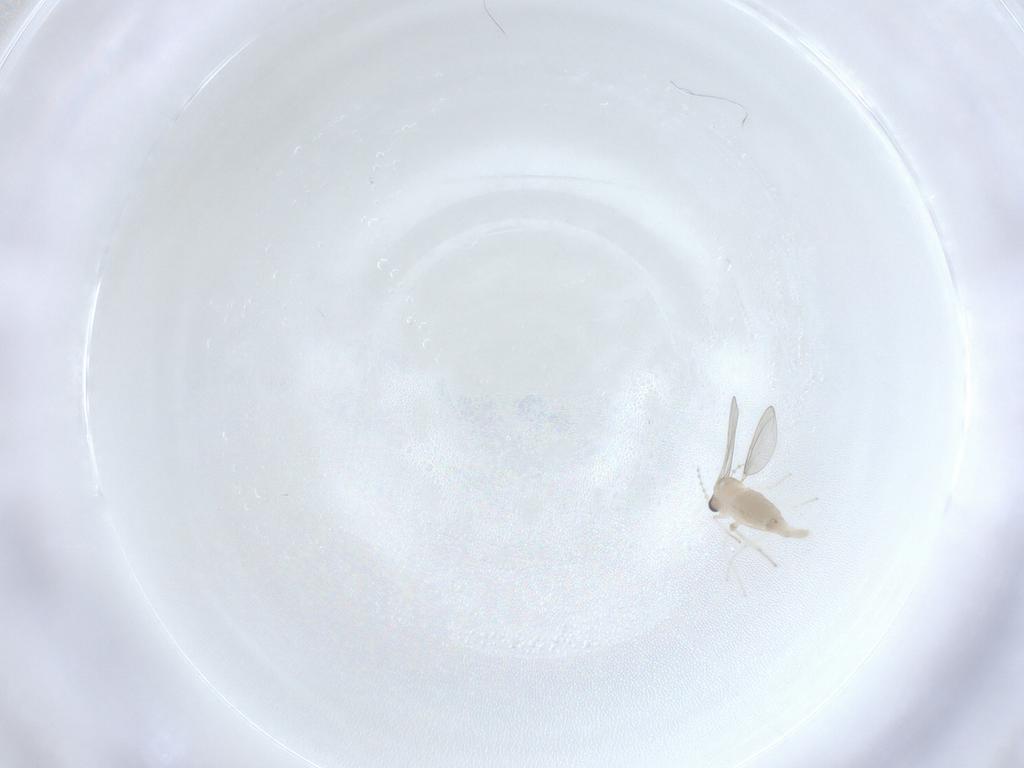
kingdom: Animalia
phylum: Arthropoda
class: Insecta
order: Diptera
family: Cecidomyiidae
